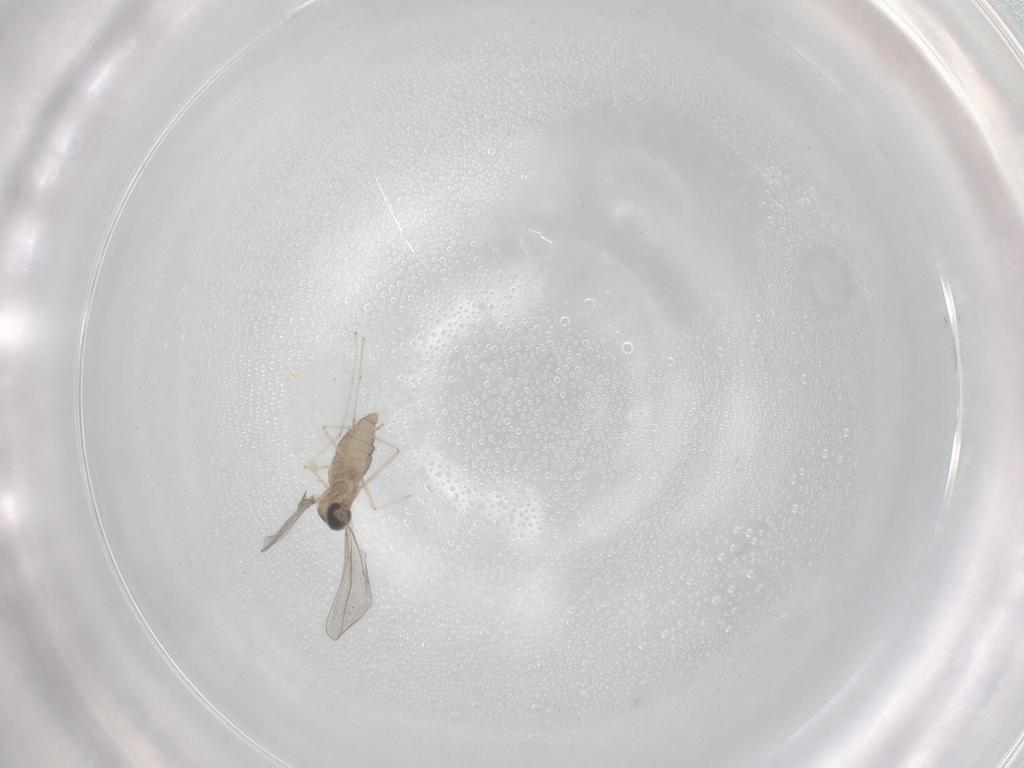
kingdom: Animalia
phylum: Arthropoda
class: Insecta
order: Diptera
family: Cecidomyiidae
